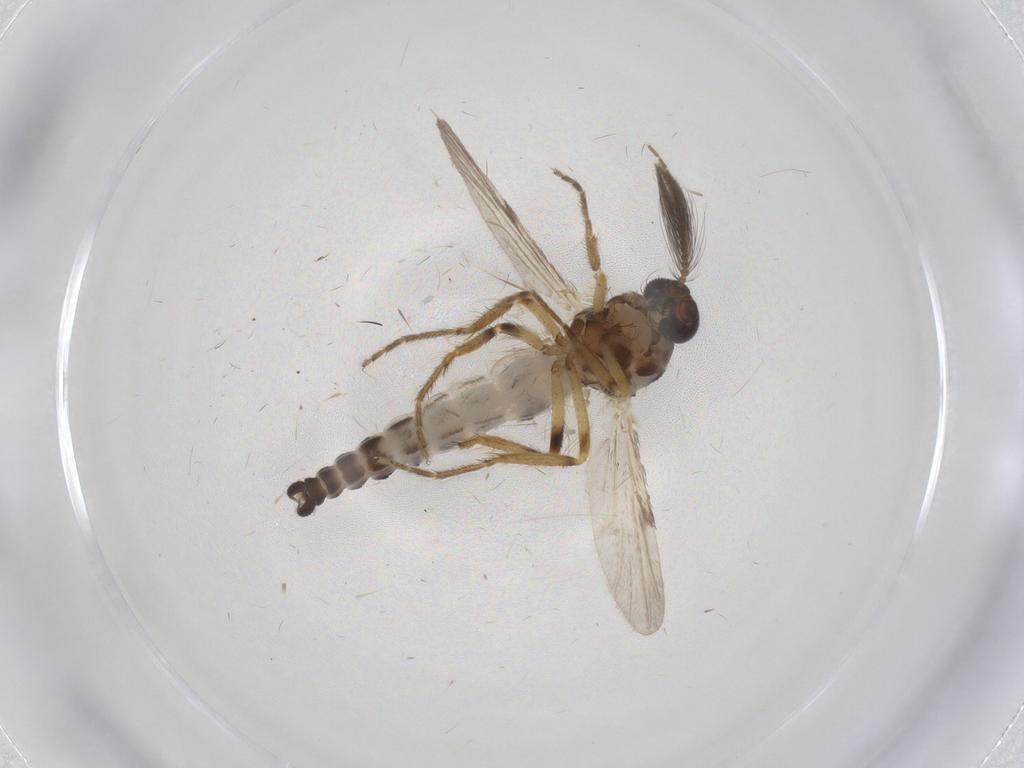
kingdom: Animalia
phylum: Arthropoda
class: Insecta
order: Diptera
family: Ceratopogonidae
